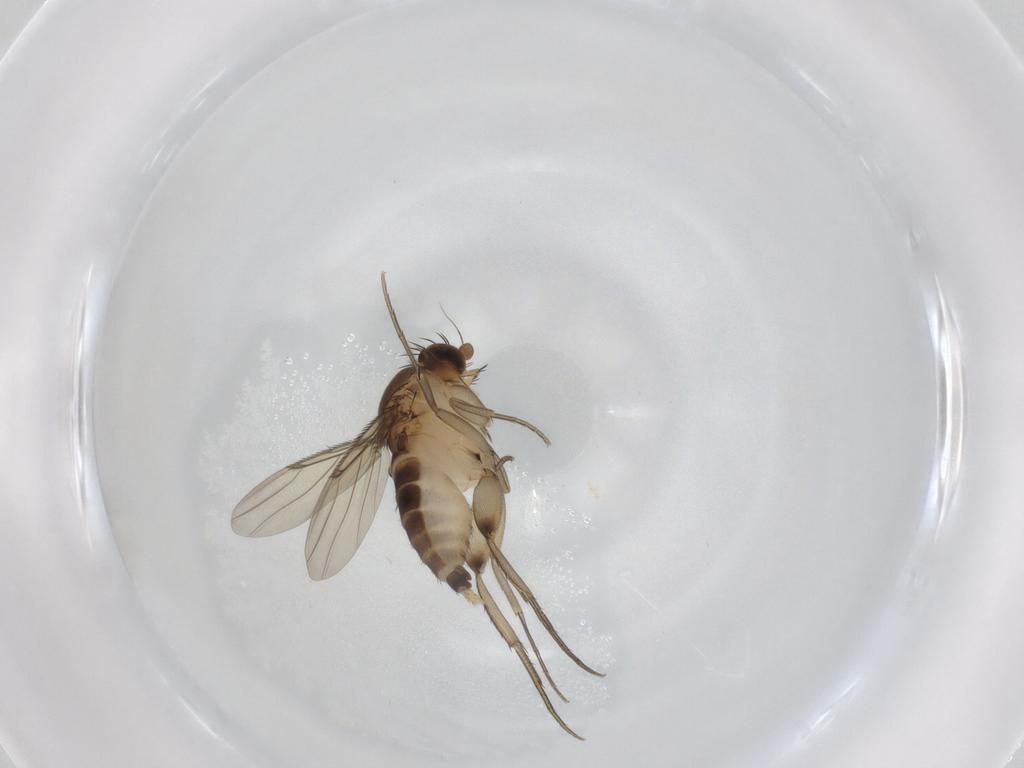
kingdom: Animalia
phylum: Arthropoda
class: Insecta
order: Diptera
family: Phoridae
